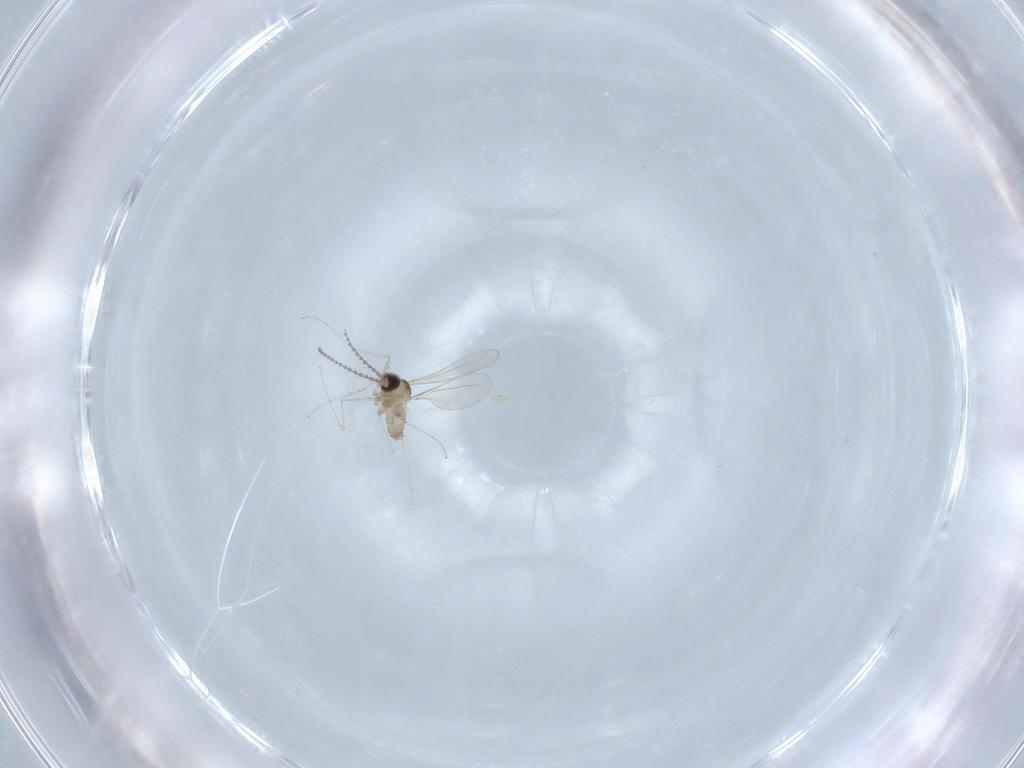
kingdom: Animalia
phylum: Arthropoda
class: Insecta
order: Diptera
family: Cecidomyiidae
